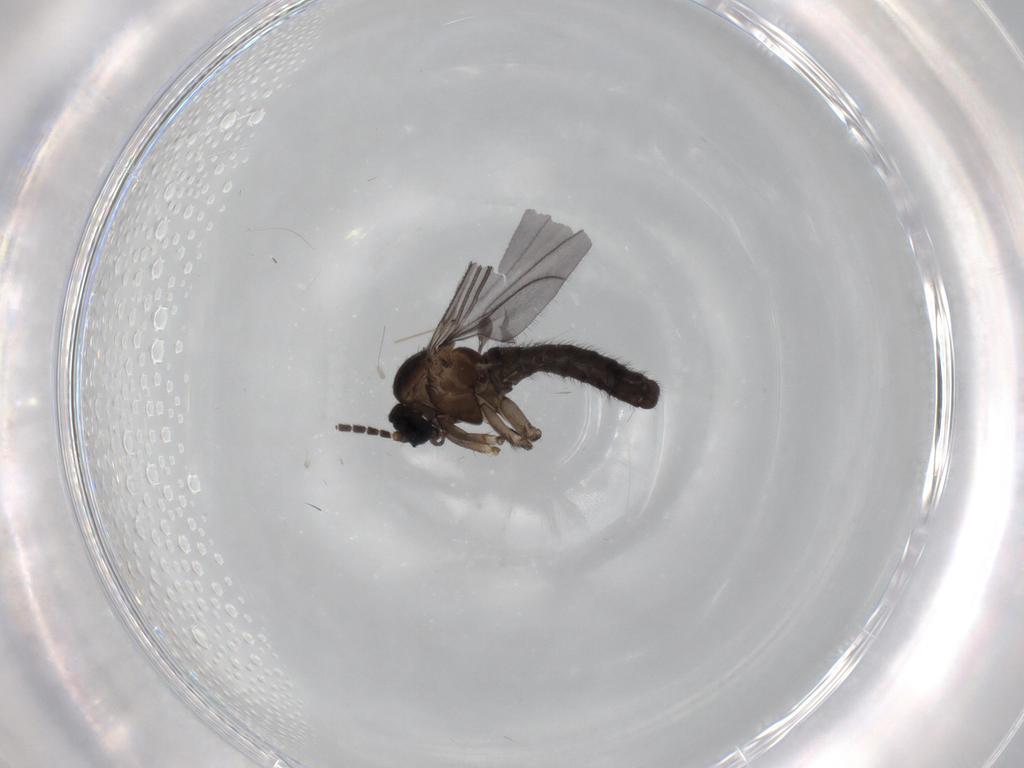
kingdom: Animalia
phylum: Arthropoda
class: Insecta
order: Diptera
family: Sciaridae
